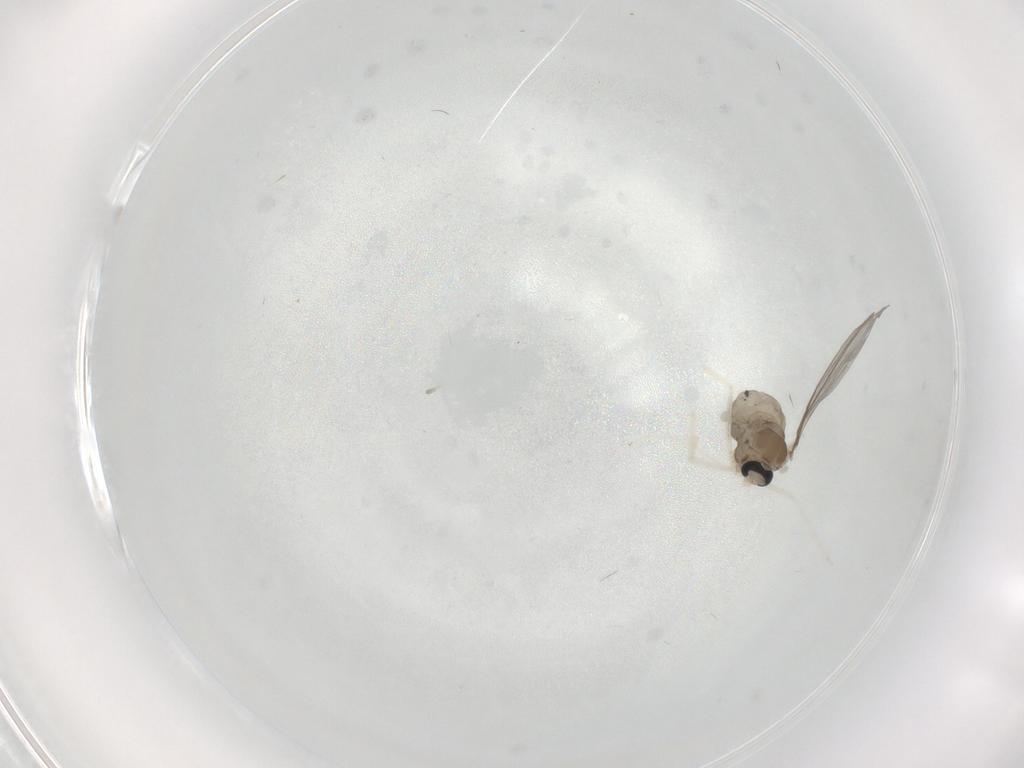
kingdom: Animalia
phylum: Arthropoda
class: Insecta
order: Diptera
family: Cecidomyiidae
